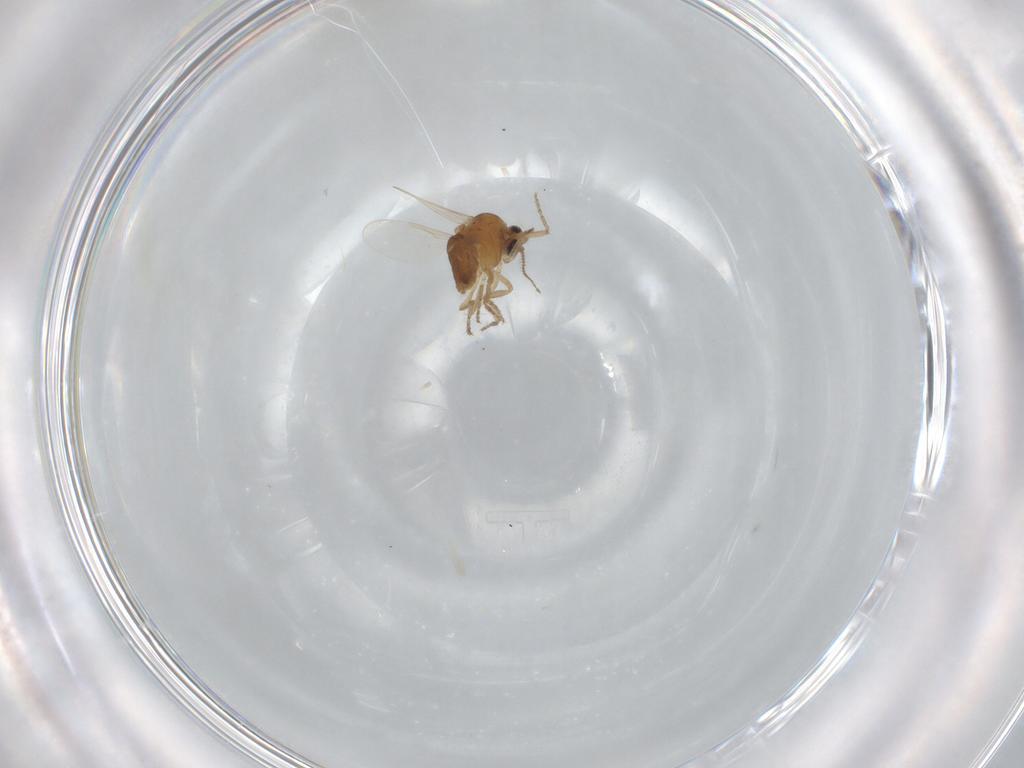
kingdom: Animalia
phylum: Arthropoda
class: Insecta
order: Diptera
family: Ceratopogonidae
